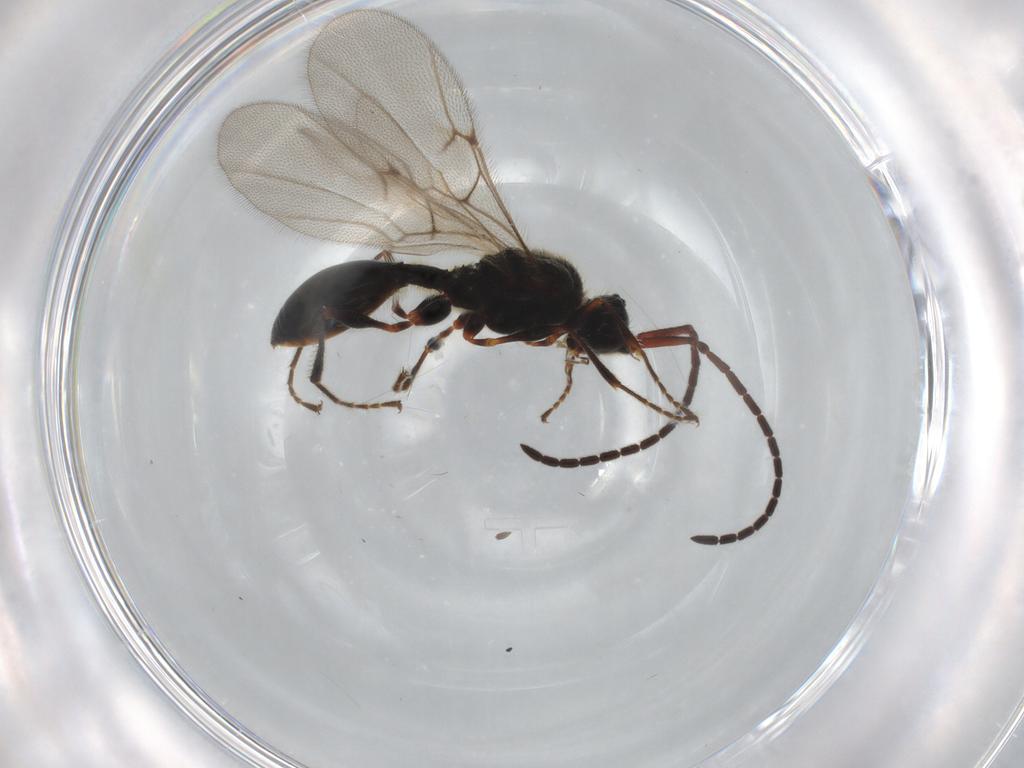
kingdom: Animalia
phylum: Arthropoda
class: Insecta
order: Hymenoptera
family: Diapriidae
